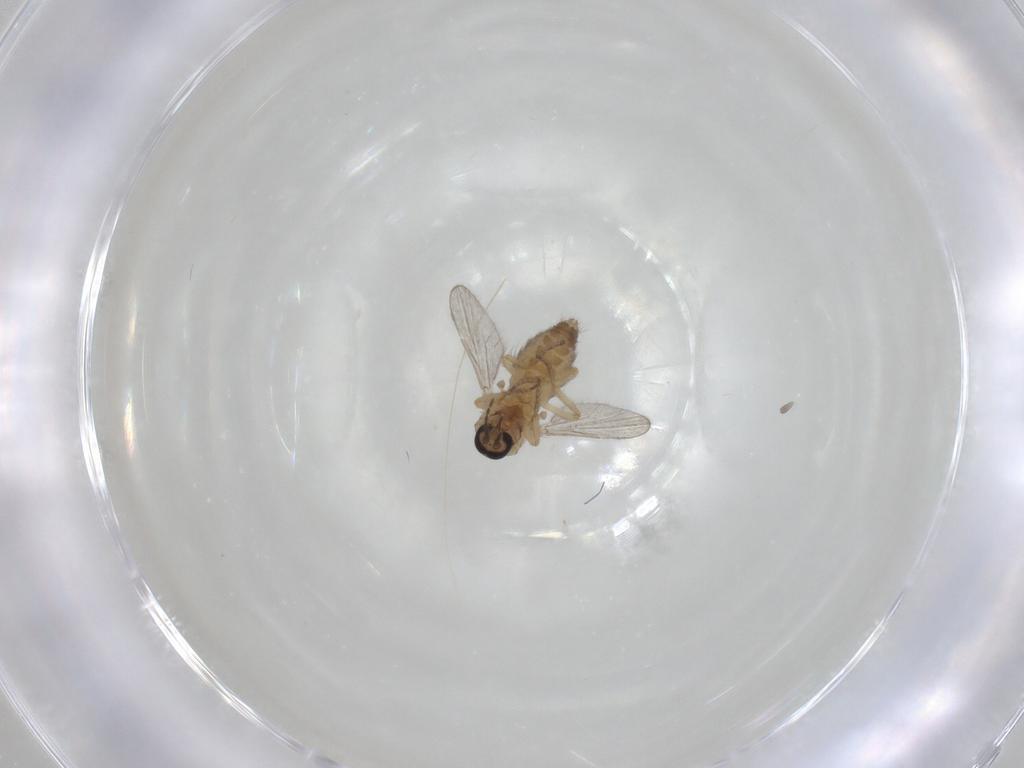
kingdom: Animalia
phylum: Arthropoda
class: Insecta
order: Diptera
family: Ceratopogonidae
